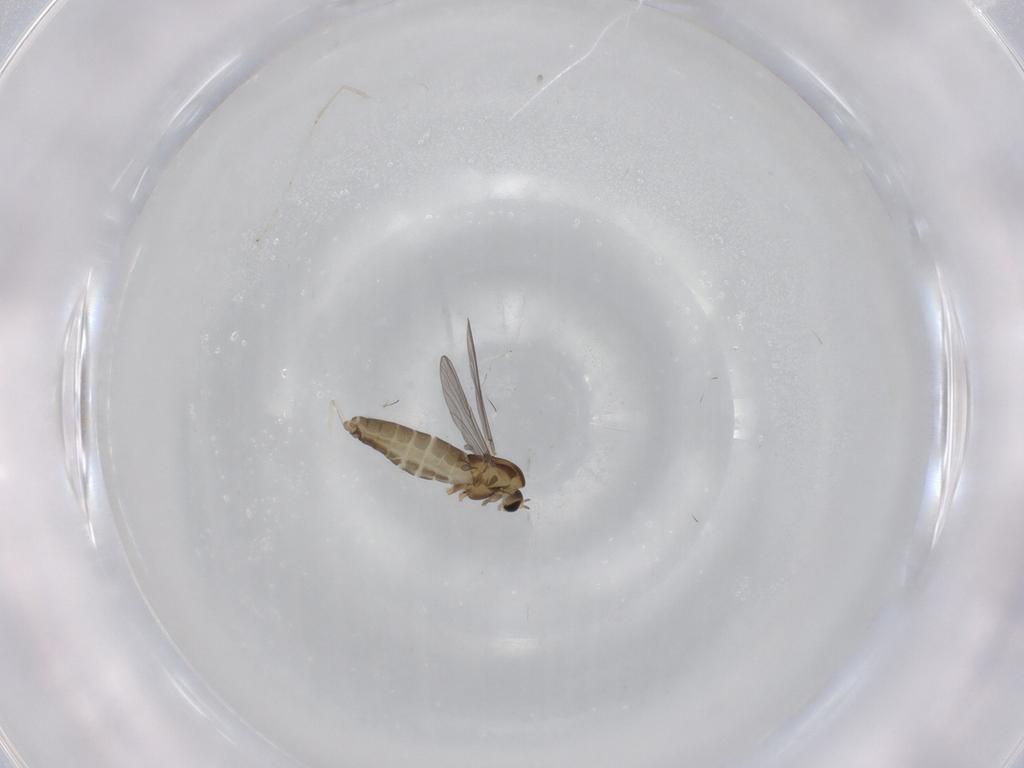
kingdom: Animalia
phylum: Arthropoda
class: Insecta
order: Diptera
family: Cecidomyiidae
